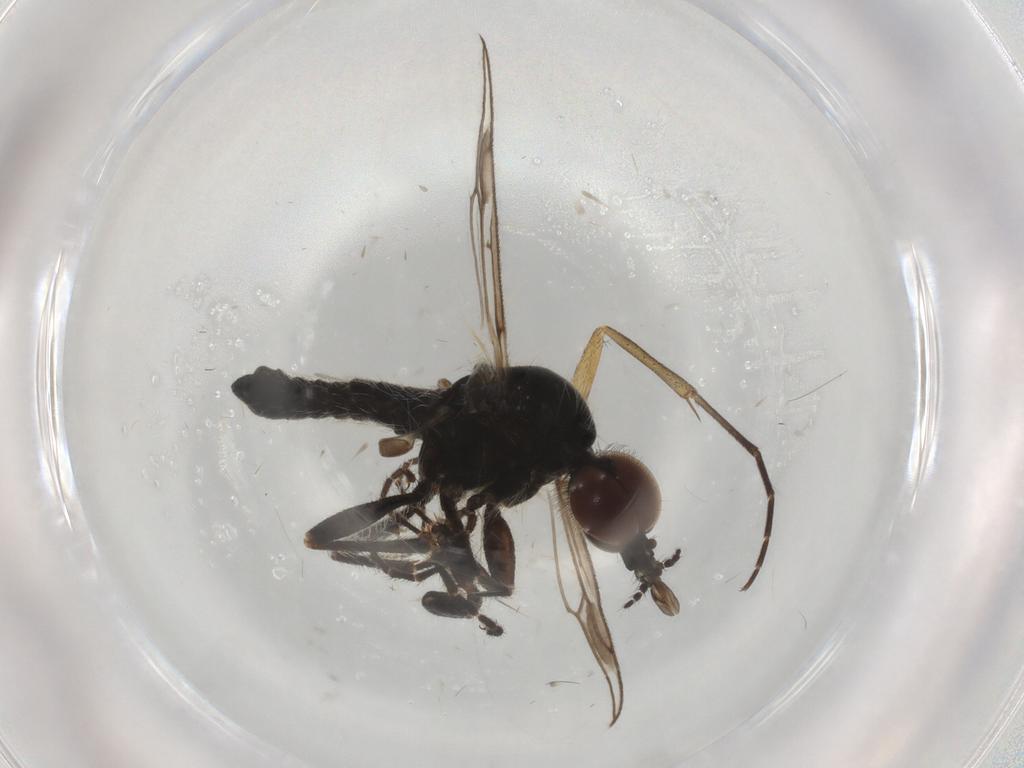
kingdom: Animalia
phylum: Arthropoda
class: Insecta
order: Diptera
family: Bibionidae
